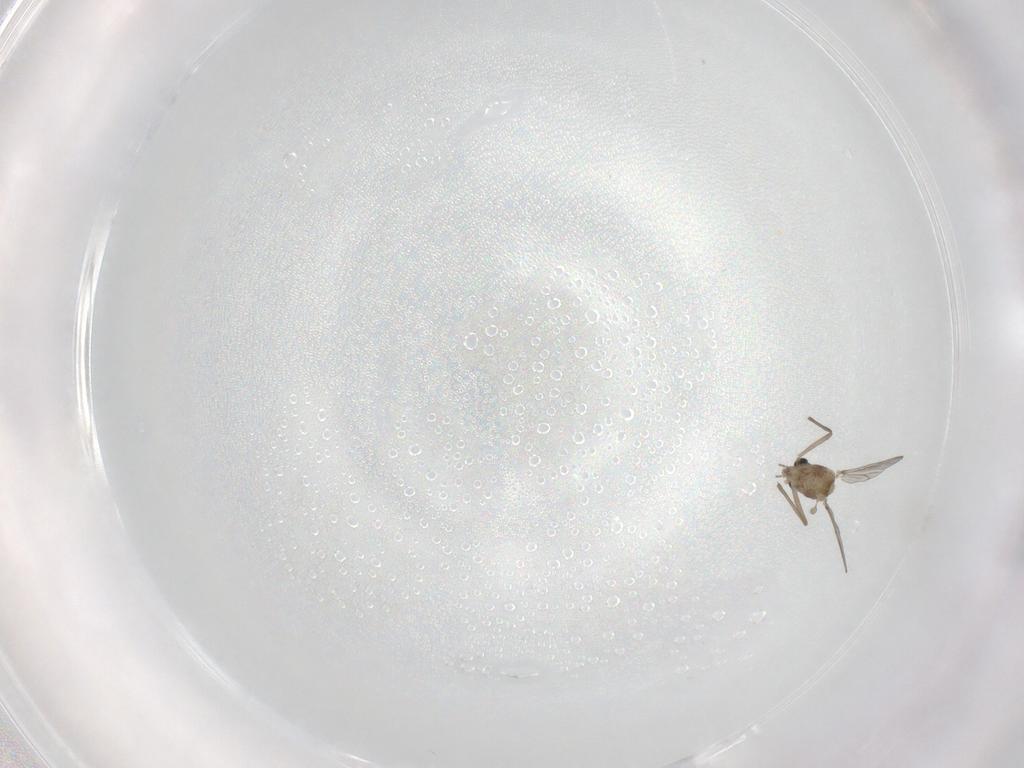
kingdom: Animalia
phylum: Arthropoda
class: Insecta
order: Diptera
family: Chironomidae
